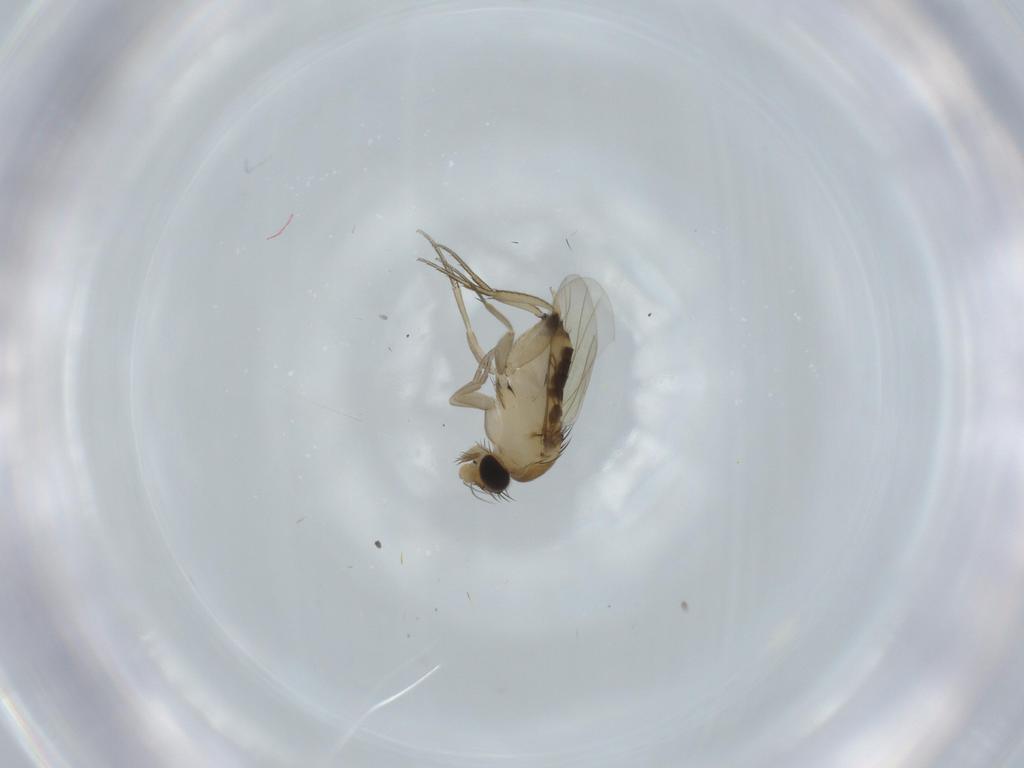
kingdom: Animalia
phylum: Arthropoda
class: Insecta
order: Diptera
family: Phoridae
